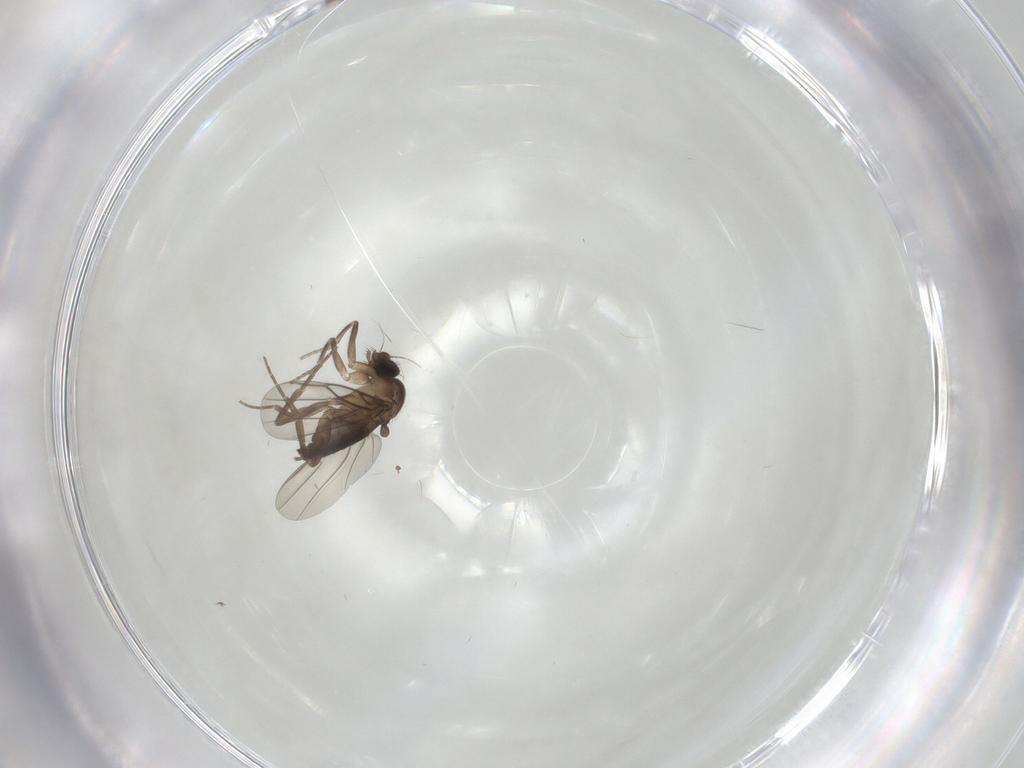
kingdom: Animalia
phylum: Arthropoda
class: Insecta
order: Diptera
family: Phoridae
